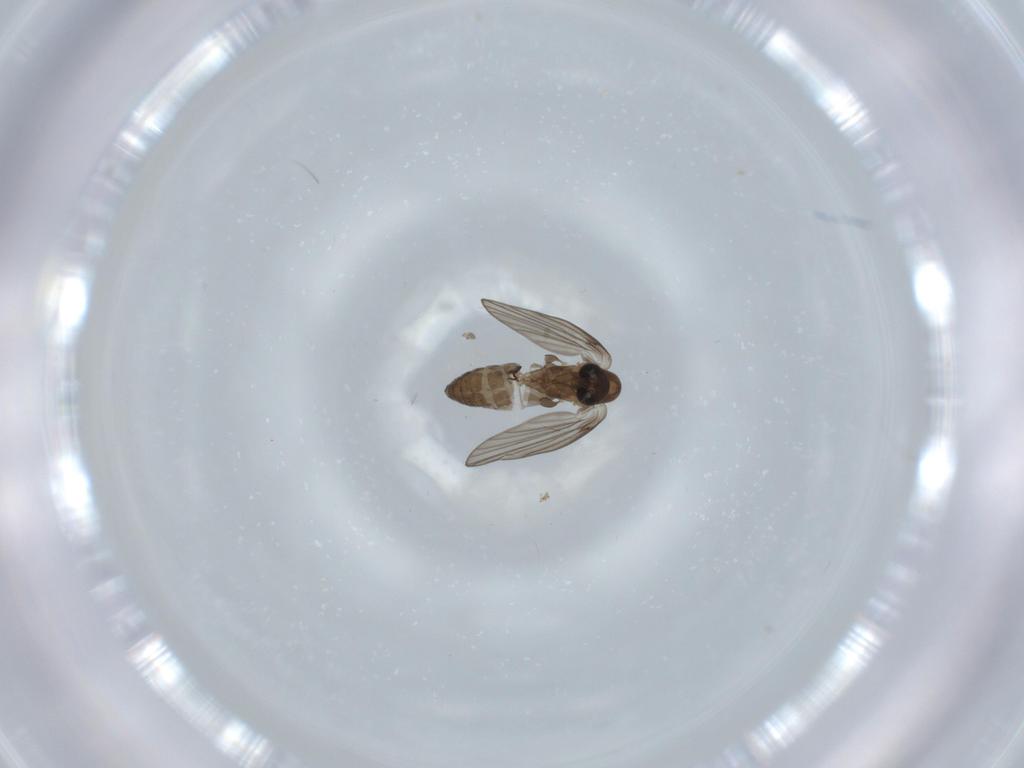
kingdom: Animalia
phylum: Arthropoda
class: Insecta
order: Diptera
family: Psychodidae
